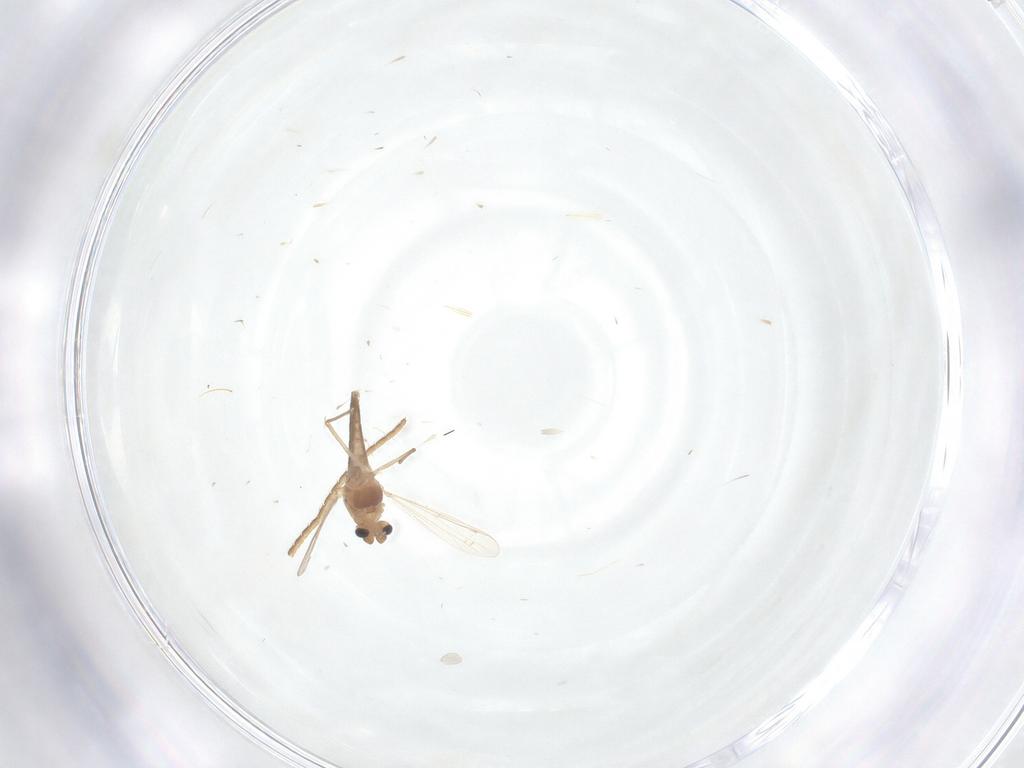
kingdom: Animalia
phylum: Arthropoda
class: Insecta
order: Diptera
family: Chironomidae
